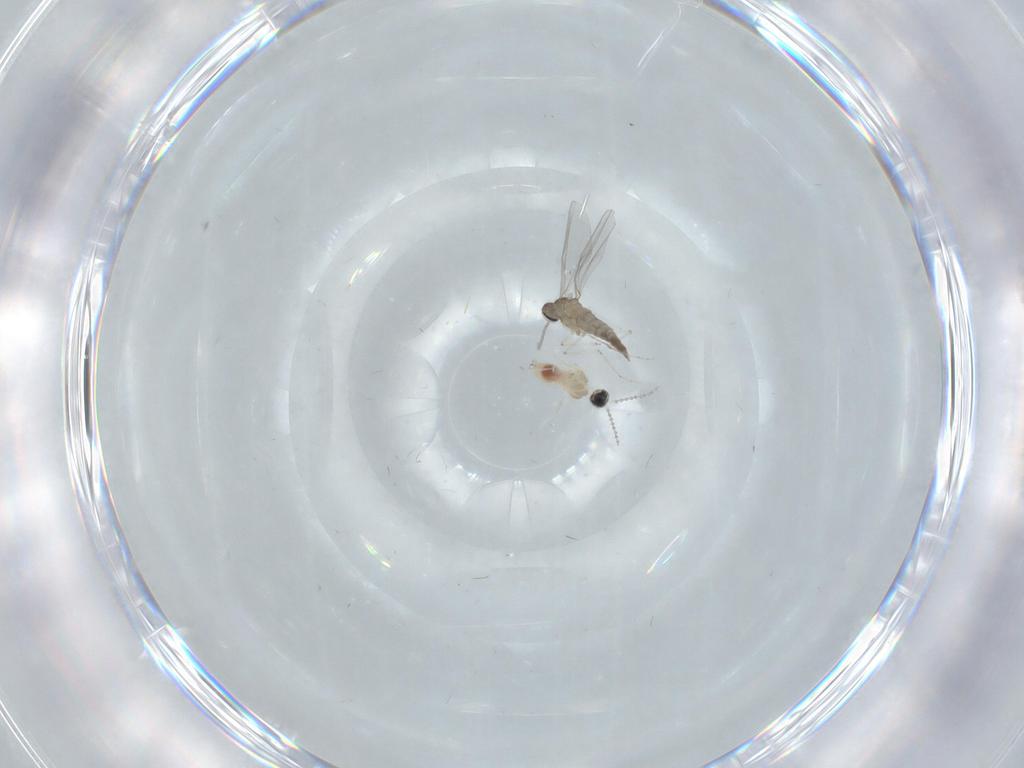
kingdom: Animalia
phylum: Arthropoda
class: Insecta
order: Diptera
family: Cecidomyiidae
